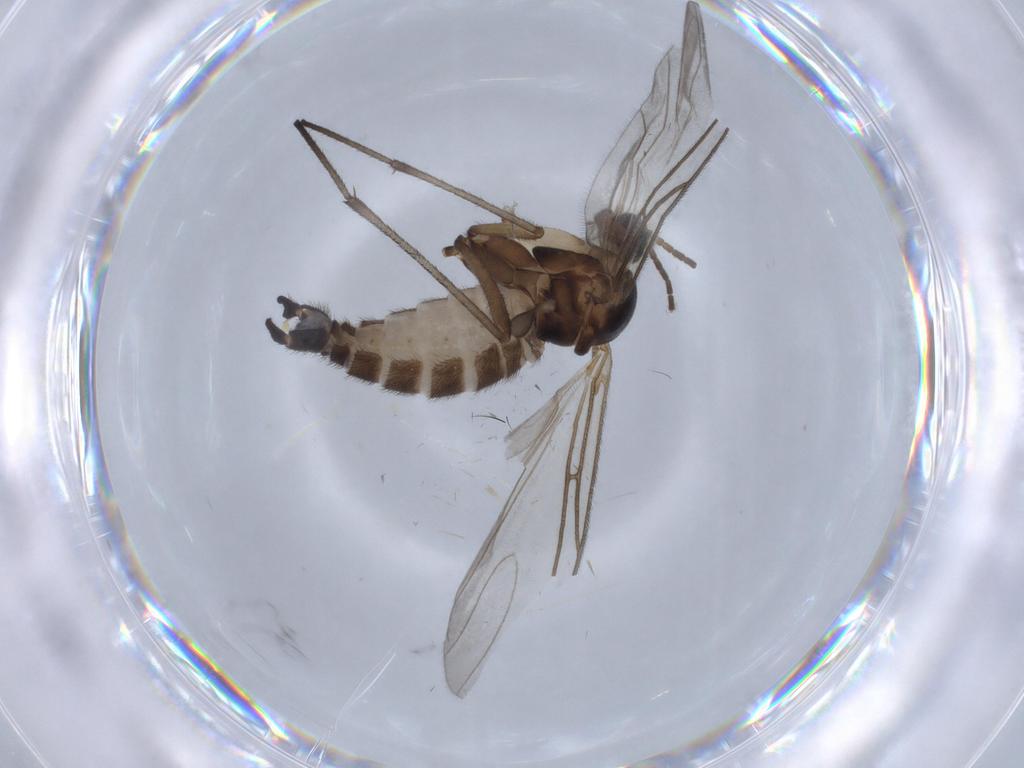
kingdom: Animalia
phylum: Arthropoda
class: Insecta
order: Diptera
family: Sciaridae
